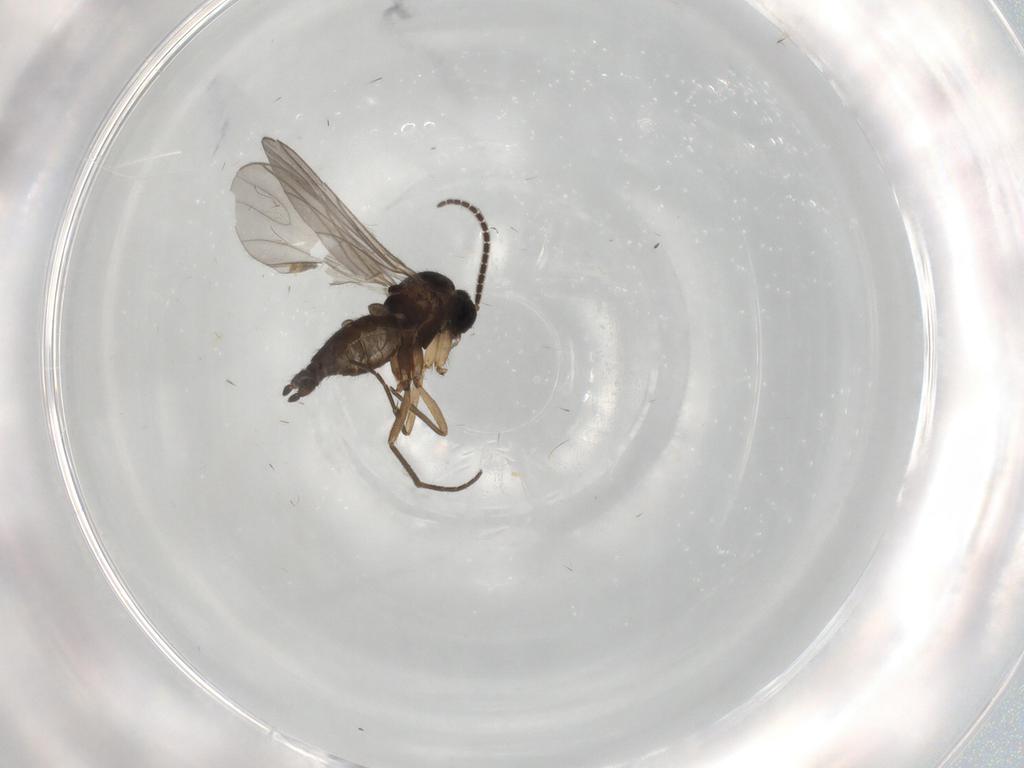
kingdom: Animalia
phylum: Arthropoda
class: Insecta
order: Diptera
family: Sciaridae
